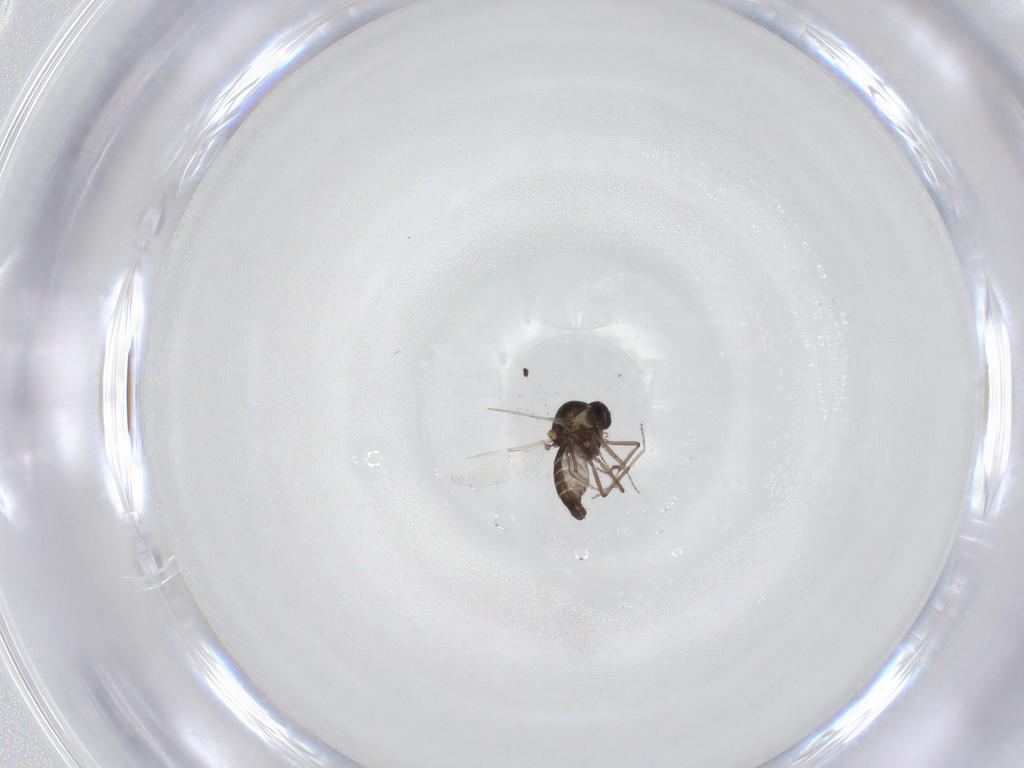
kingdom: Animalia
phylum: Arthropoda
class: Insecta
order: Diptera
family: Ceratopogonidae
